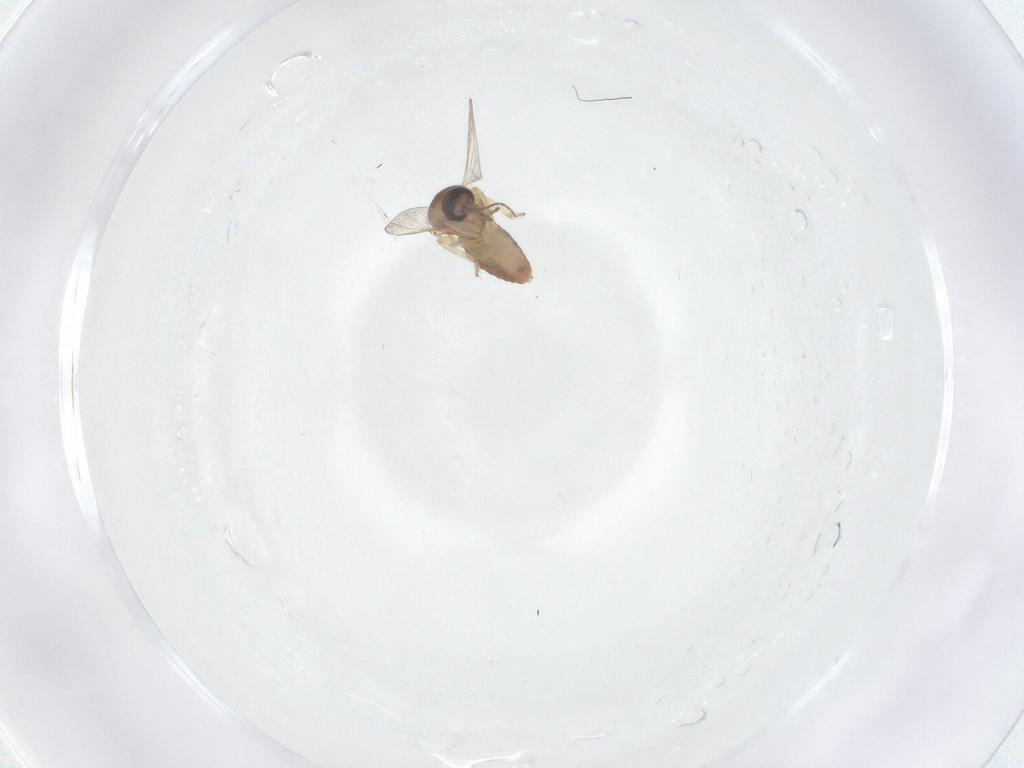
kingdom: Animalia
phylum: Arthropoda
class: Insecta
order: Diptera
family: Ceratopogonidae
